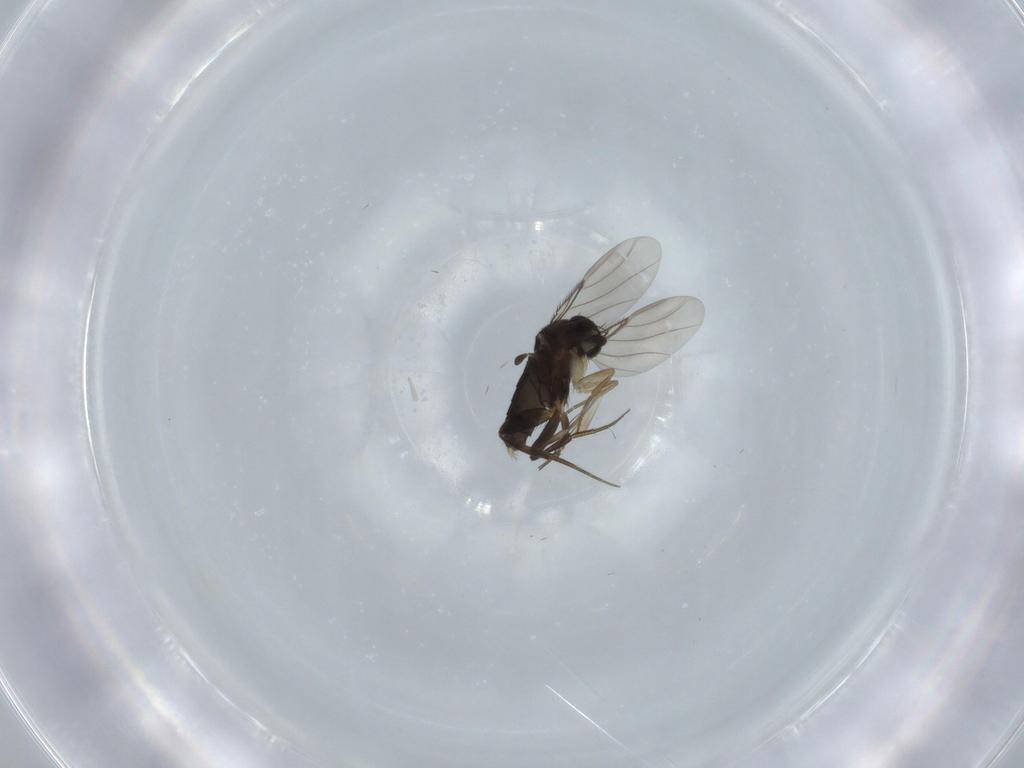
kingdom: Animalia
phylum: Arthropoda
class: Insecta
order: Diptera
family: Phoridae
